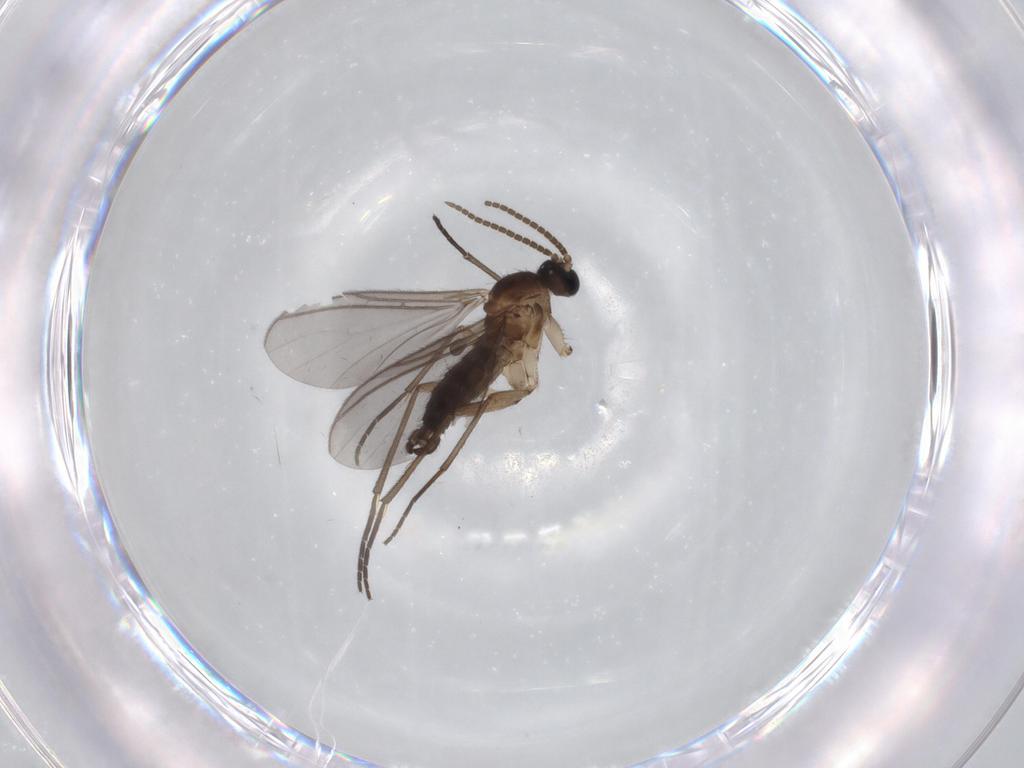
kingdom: Animalia
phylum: Arthropoda
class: Insecta
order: Diptera
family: Sciaridae
